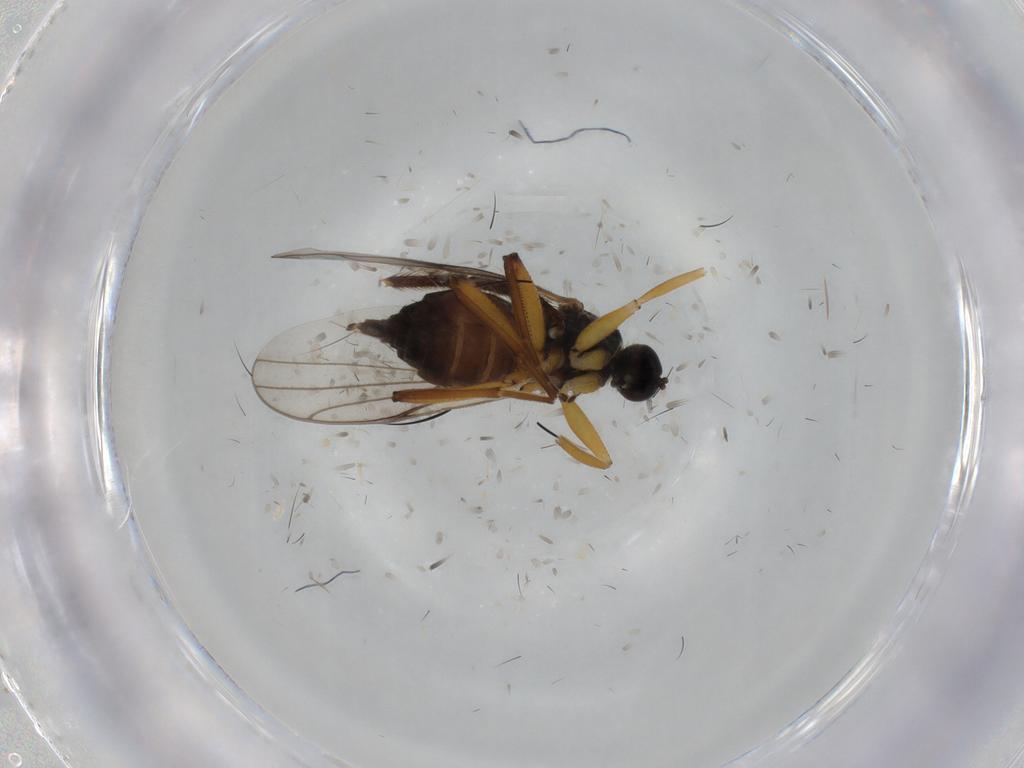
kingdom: Animalia
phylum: Arthropoda
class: Insecta
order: Diptera
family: Hybotidae
